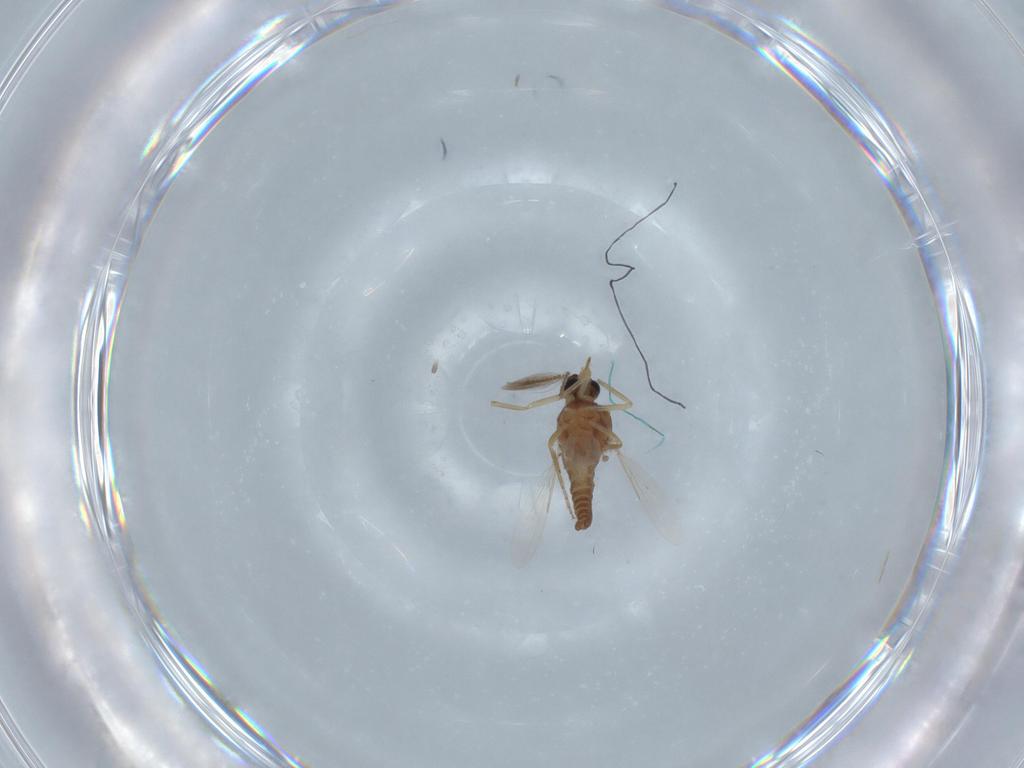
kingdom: Animalia
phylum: Arthropoda
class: Insecta
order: Diptera
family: Ceratopogonidae
